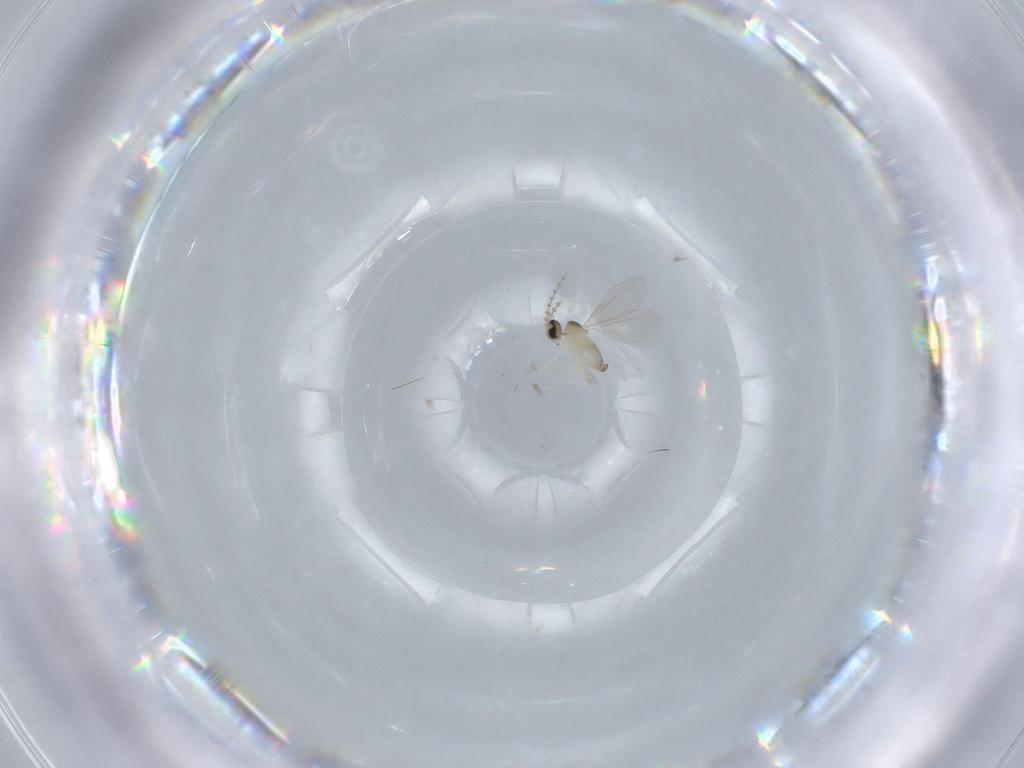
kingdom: Animalia
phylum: Arthropoda
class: Insecta
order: Diptera
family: Cecidomyiidae
